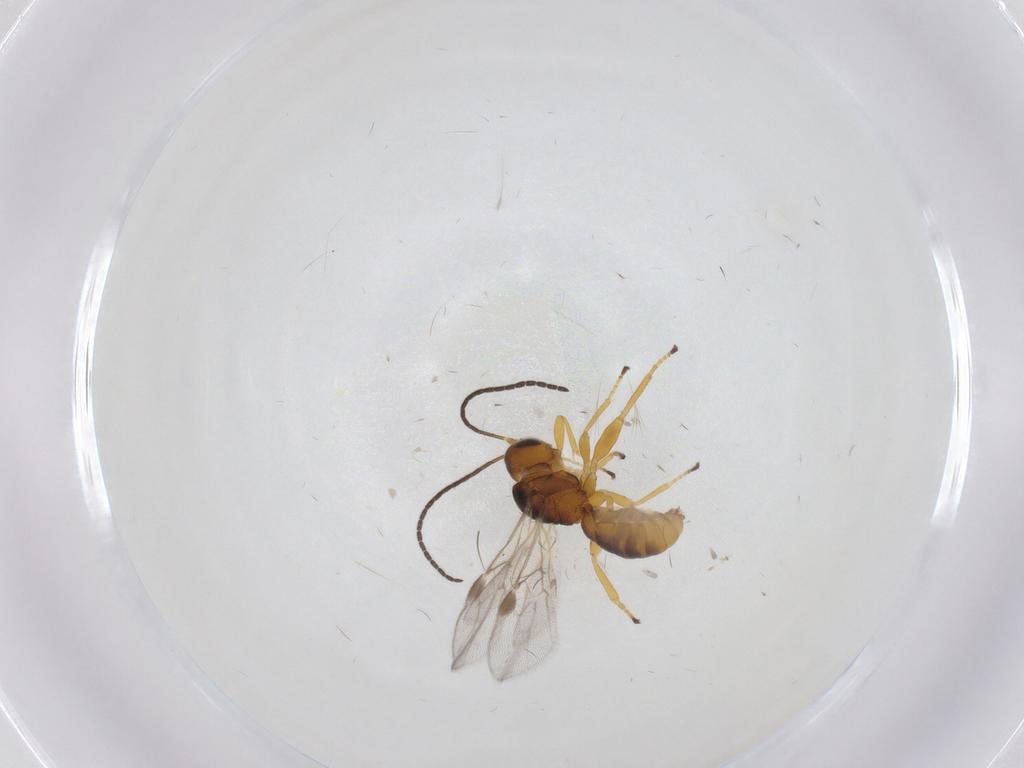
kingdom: Animalia
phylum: Arthropoda
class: Insecta
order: Hymenoptera
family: Braconidae
